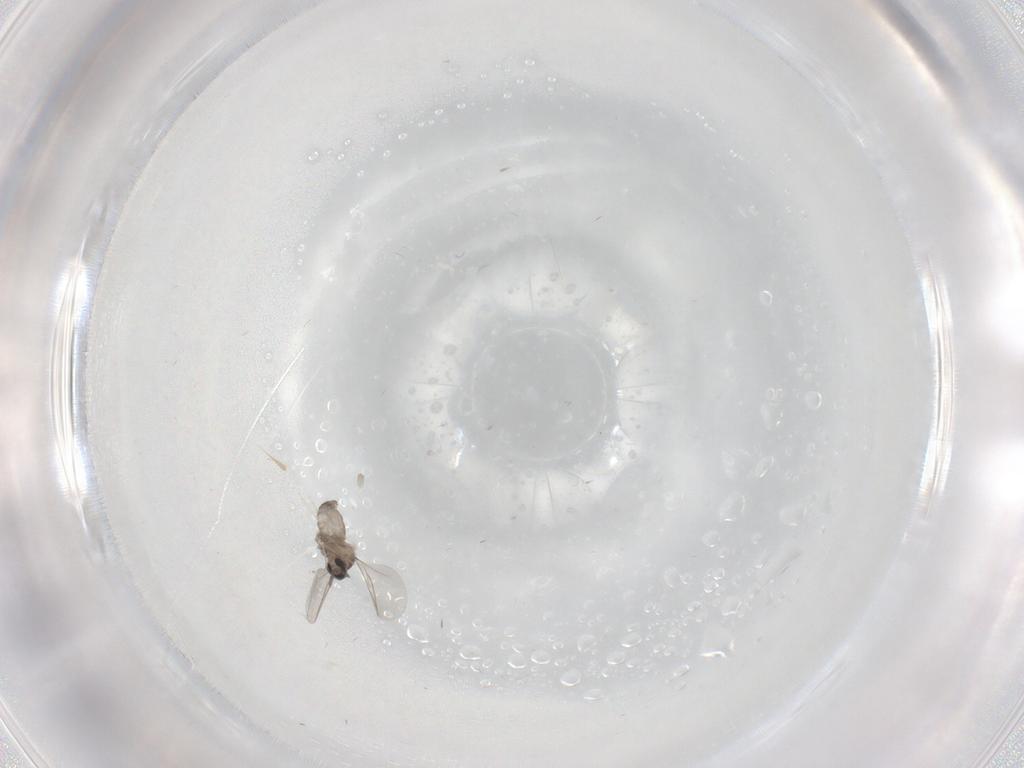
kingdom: Animalia
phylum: Arthropoda
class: Insecta
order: Diptera
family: Cecidomyiidae
